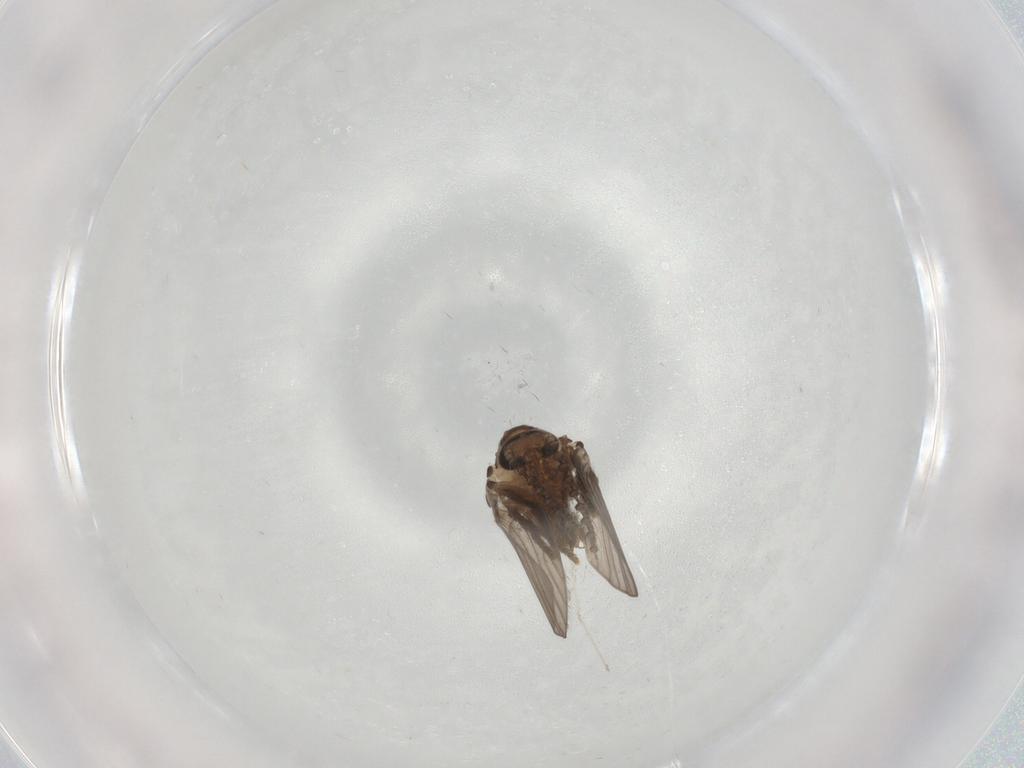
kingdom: Animalia
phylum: Arthropoda
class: Insecta
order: Diptera
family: Psychodidae
